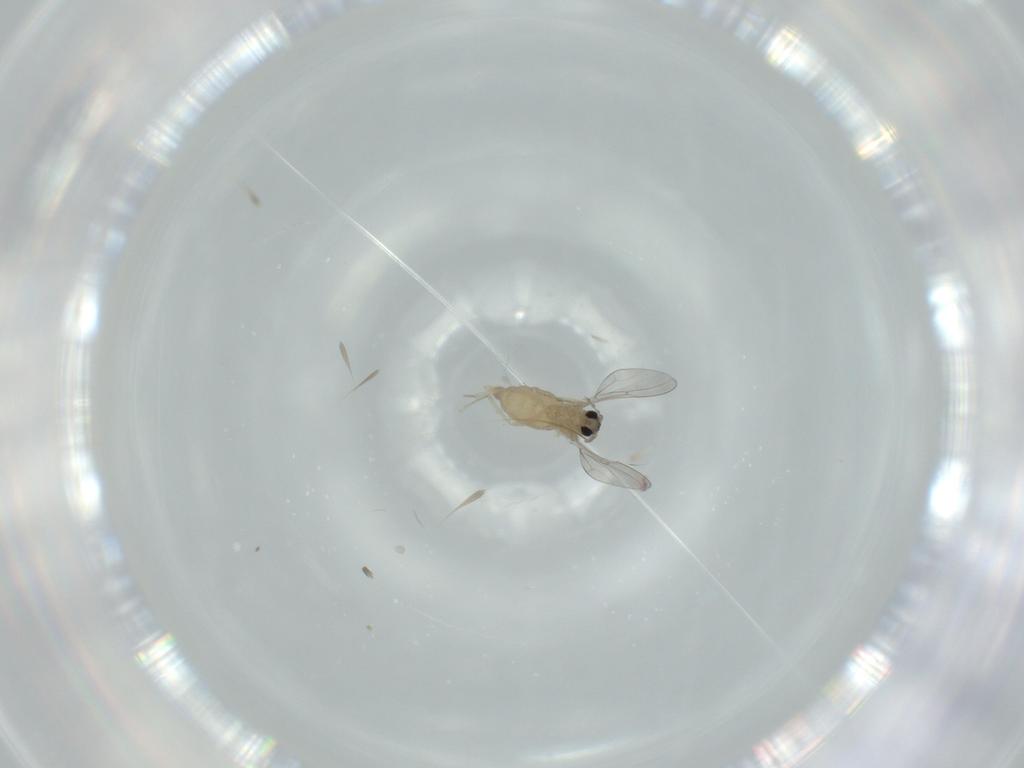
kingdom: Animalia
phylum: Arthropoda
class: Insecta
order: Diptera
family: Cecidomyiidae
